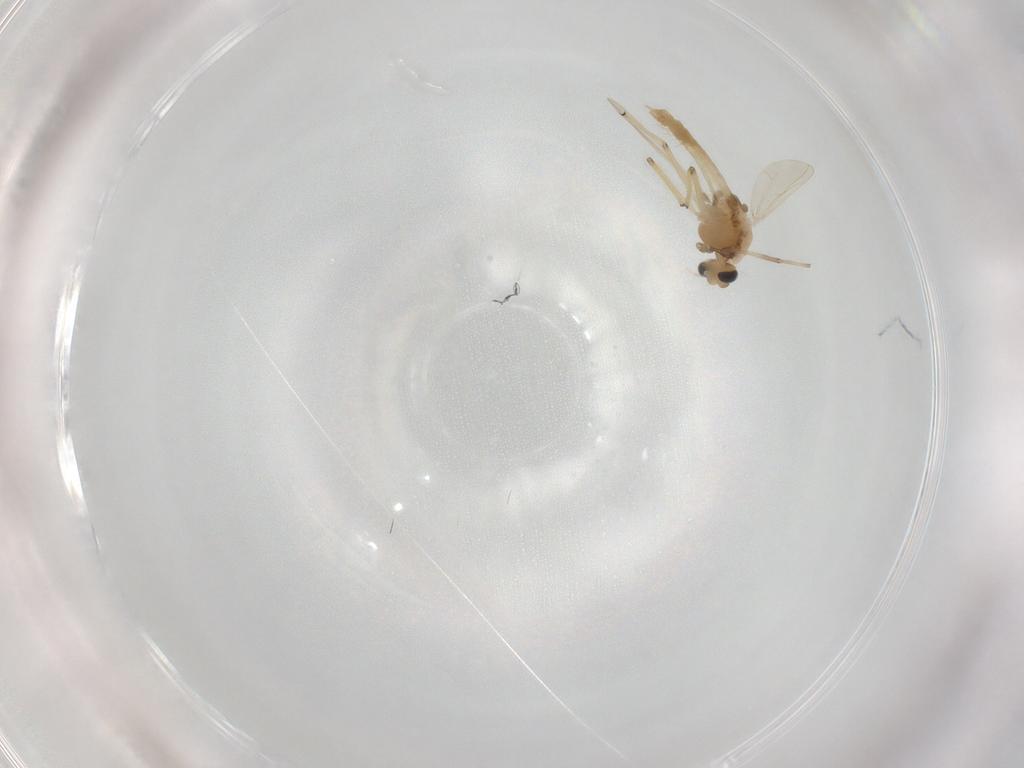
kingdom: Animalia
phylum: Arthropoda
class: Insecta
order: Diptera
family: Chironomidae
